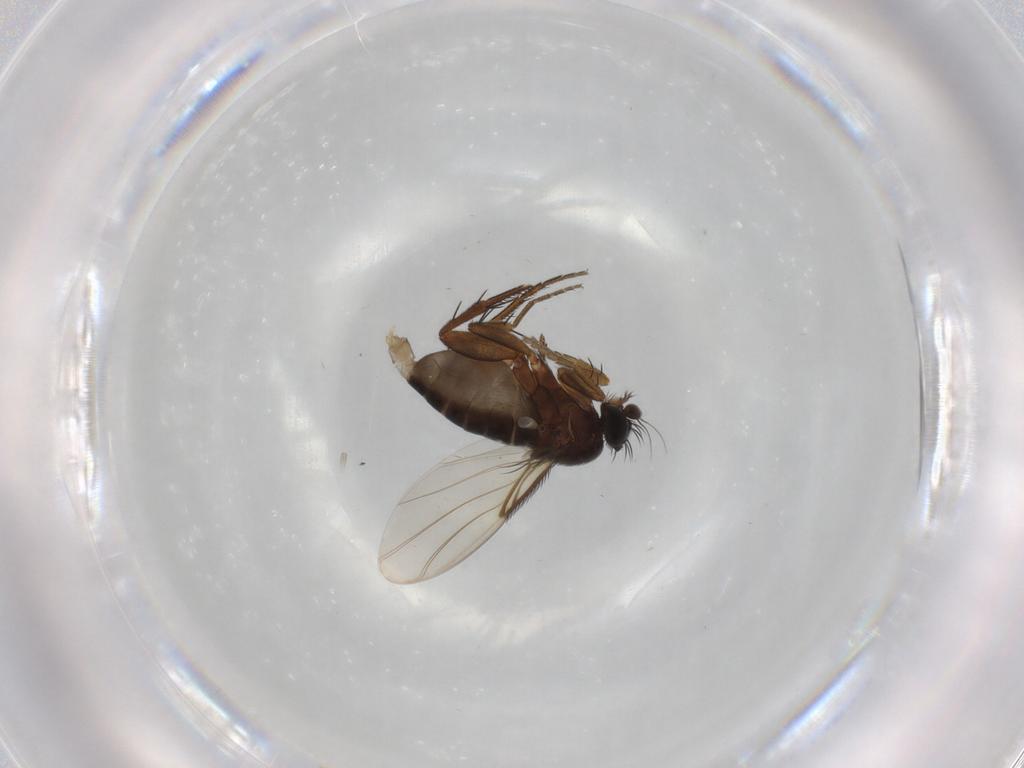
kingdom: Animalia
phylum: Arthropoda
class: Insecta
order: Diptera
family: Phoridae
